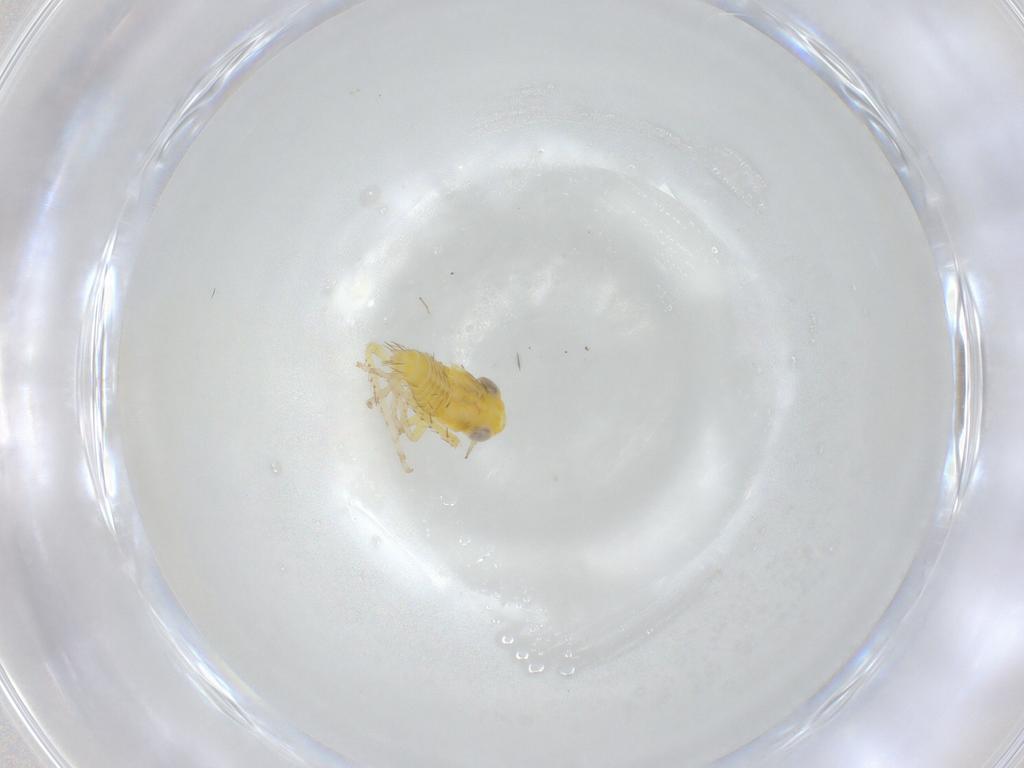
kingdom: Animalia
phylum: Arthropoda
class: Insecta
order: Hemiptera
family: Cicadellidae
